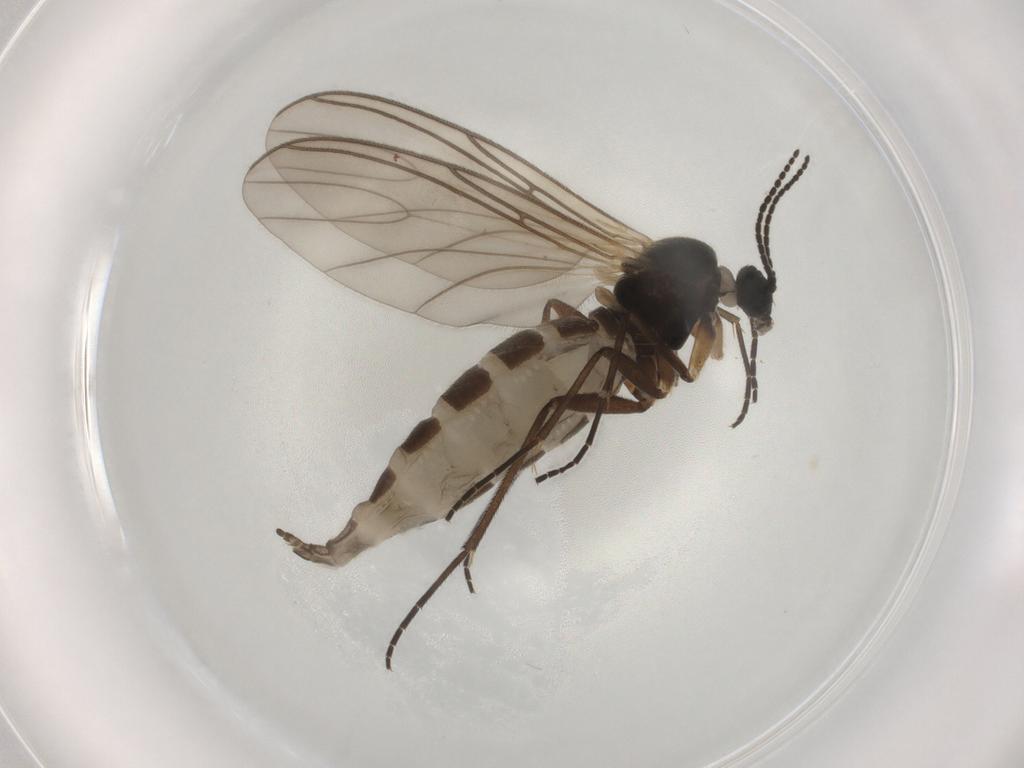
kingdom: Animalia
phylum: Arthropoda
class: Insecta
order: Diptera
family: Sciaridae
